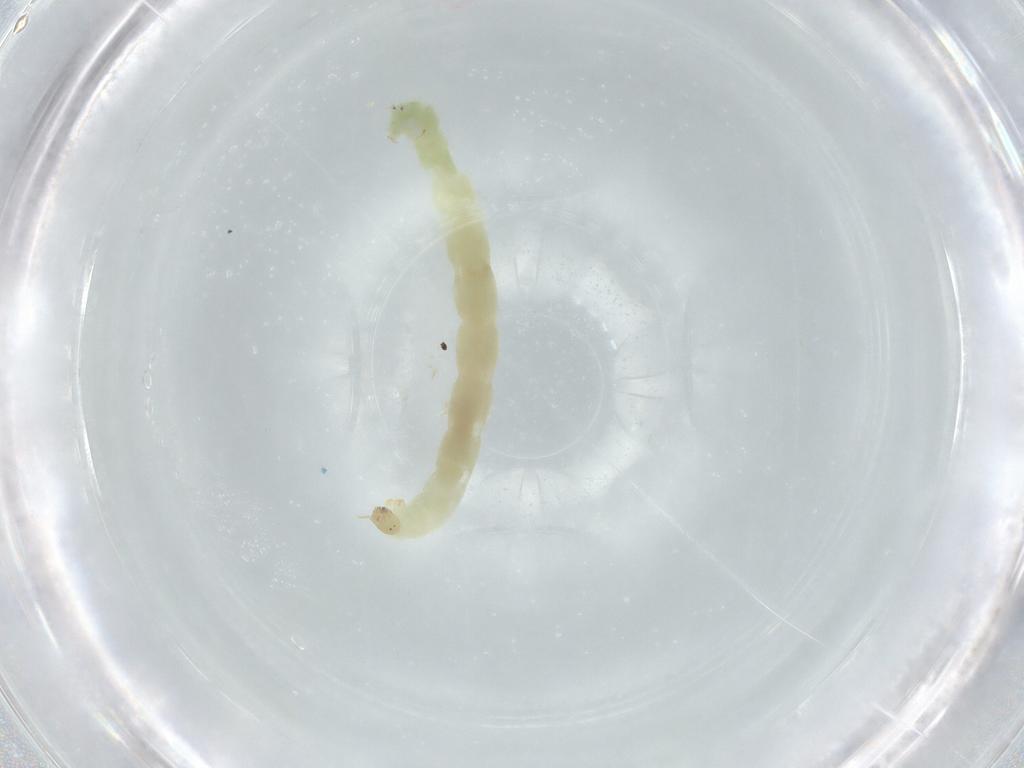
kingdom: Animalia
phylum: Arthropoda
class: Insecta
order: Diptera
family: Chironomidae
